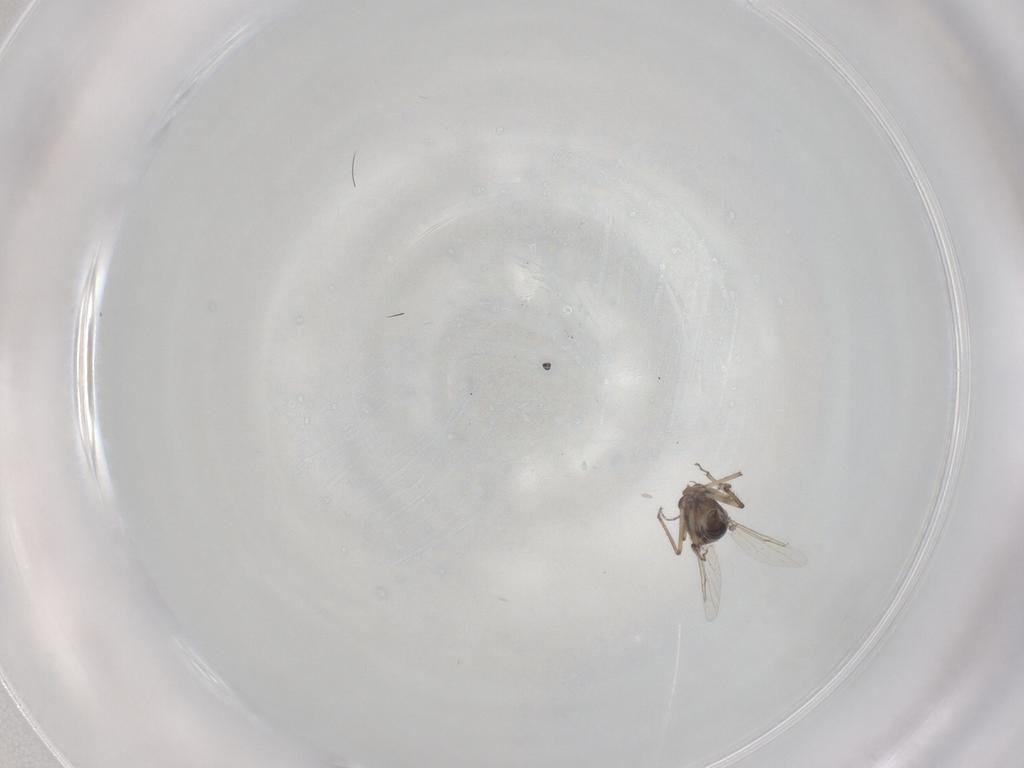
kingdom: Animalia
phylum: Arthropoda
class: Insecta
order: Diptera
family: Ceratopogonidae
